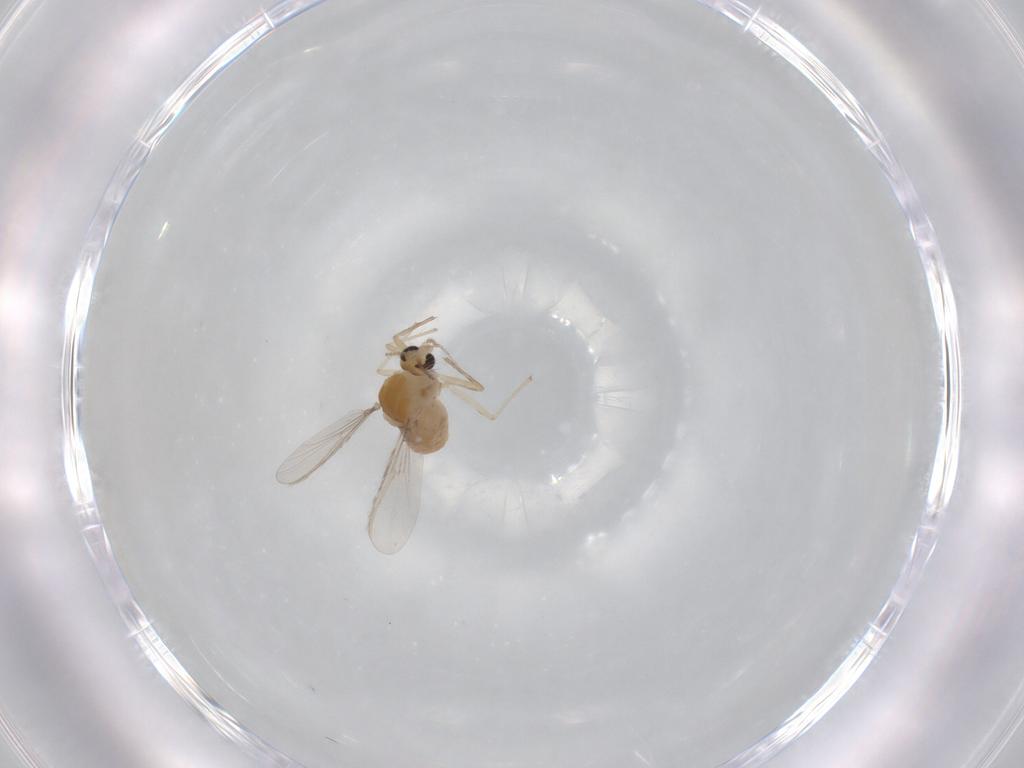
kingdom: Animalia
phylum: Arthropoda
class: Insecta
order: Diptera
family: Chironomidae
